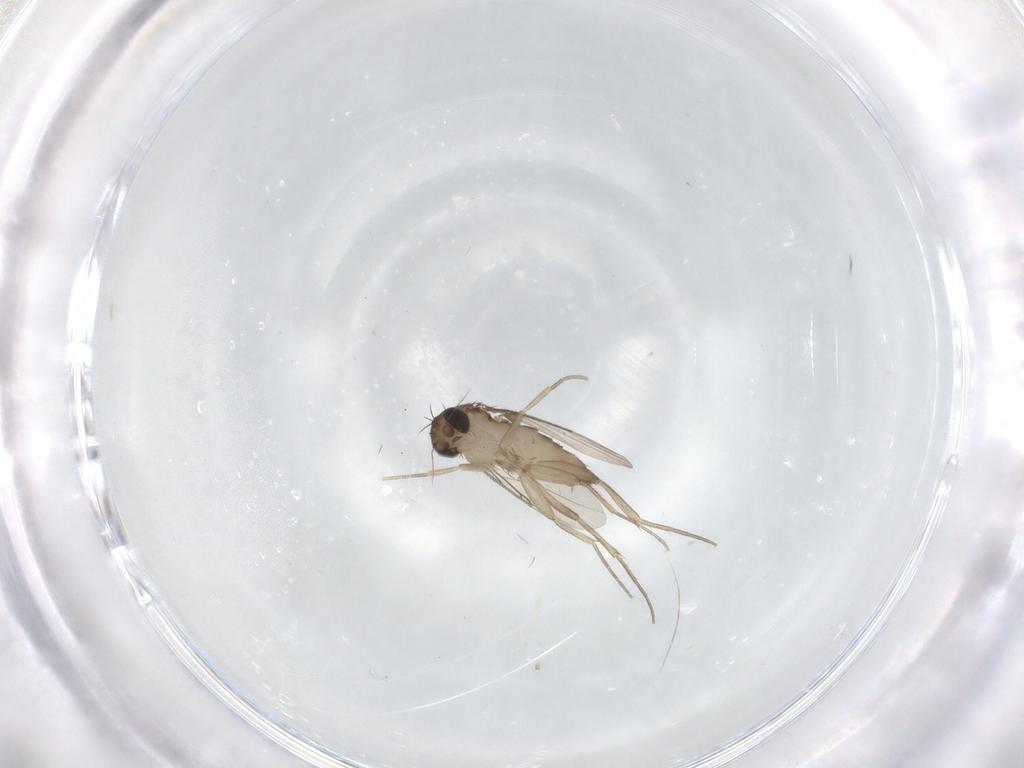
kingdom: Animalia
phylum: Arthropoda
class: Insecta
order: Diptera
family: Phoridae
